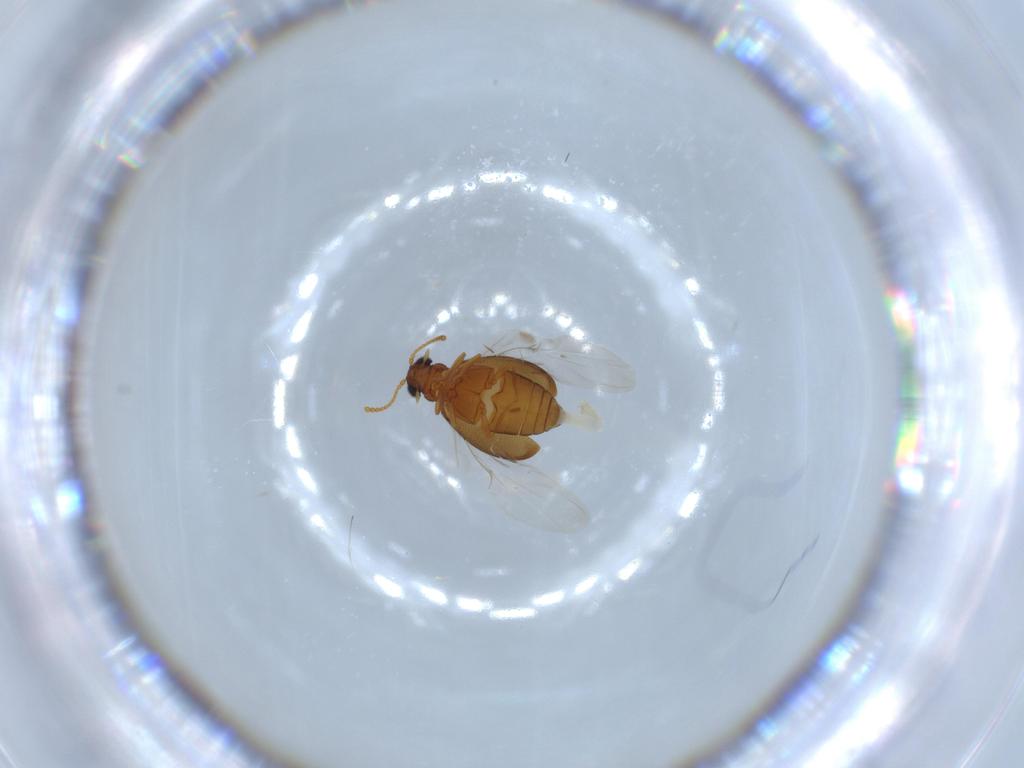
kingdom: Animalia
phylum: Arthropoda
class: Insecta
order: Coleoptera
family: Aderidae
